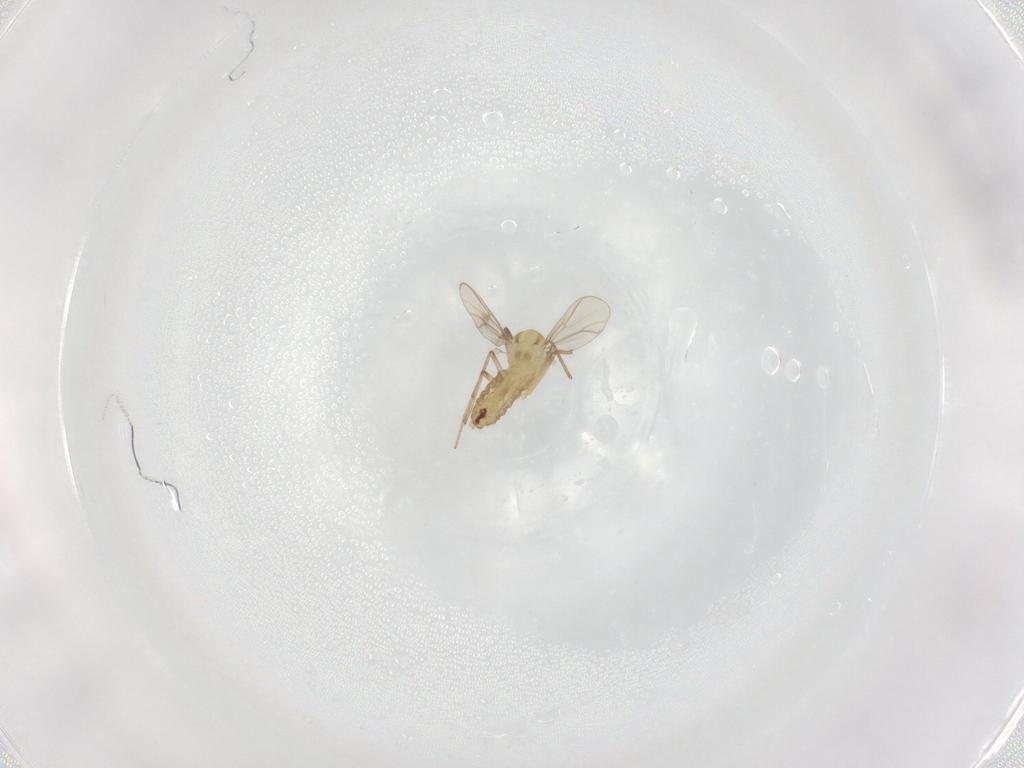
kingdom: Animalia
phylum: Arthropoda
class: Insecta
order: Diptera
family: Chironomidae
